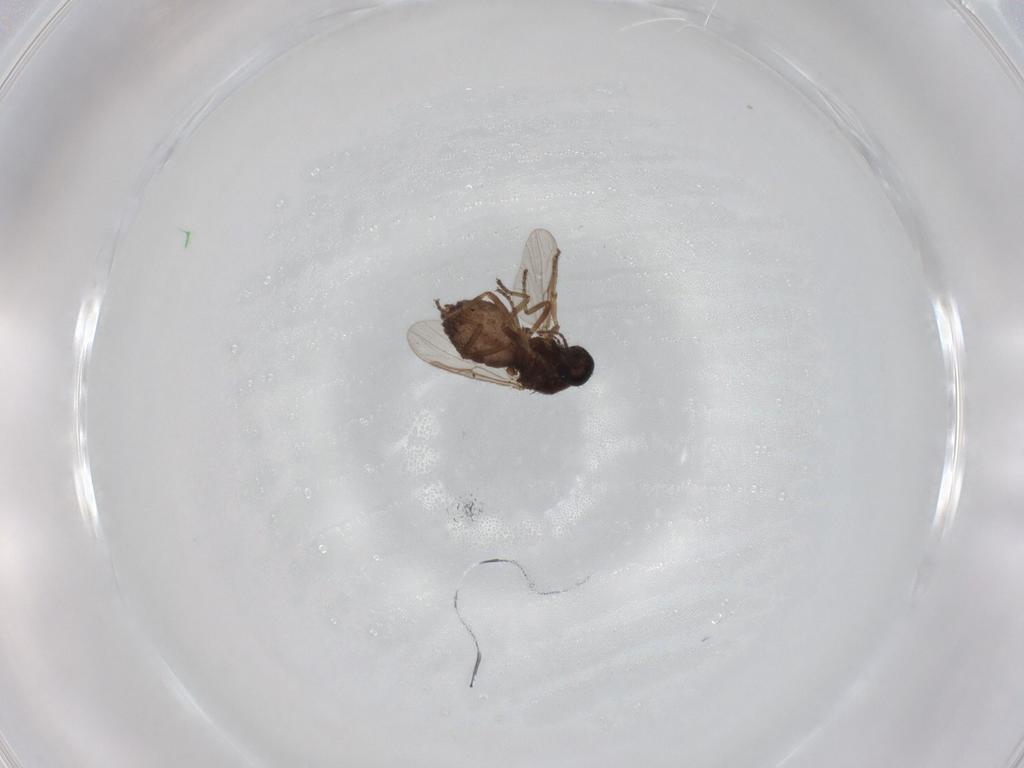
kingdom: Animalia
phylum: Arthropoda
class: Insecta
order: Diptera
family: Ceratopogonidae
